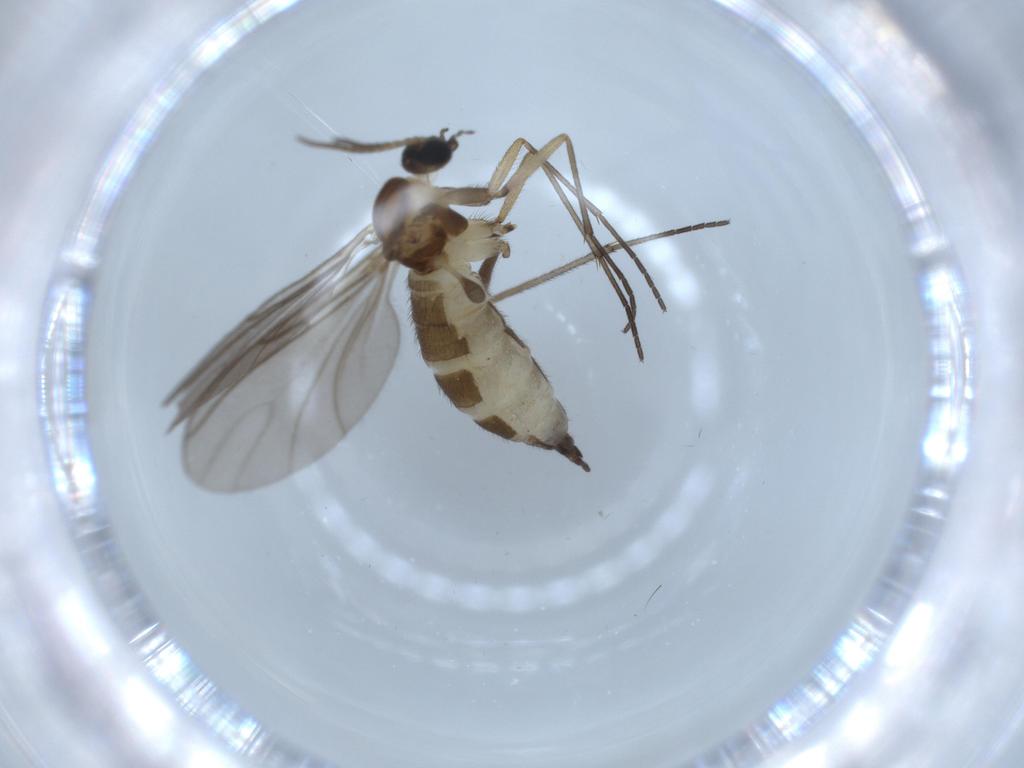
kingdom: Animalia
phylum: Arthropoda
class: Insecta
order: Diptera
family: Sciaridae
